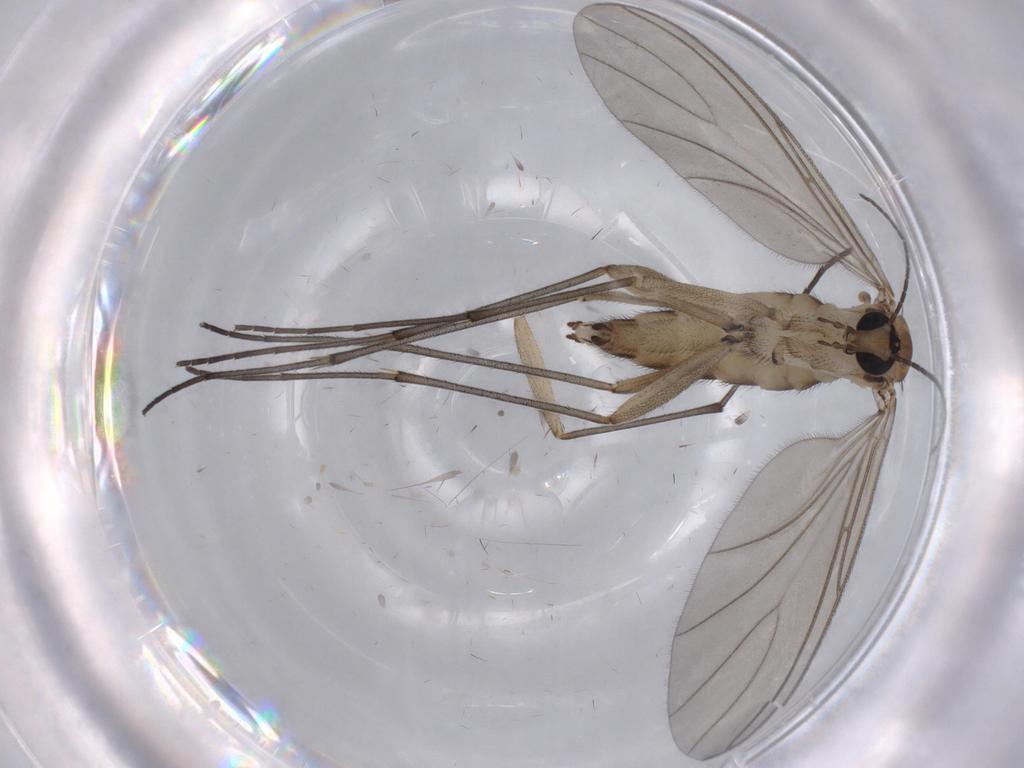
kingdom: Animalia
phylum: Arthropoda
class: Insecta
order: Diptera
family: Sciaridae
